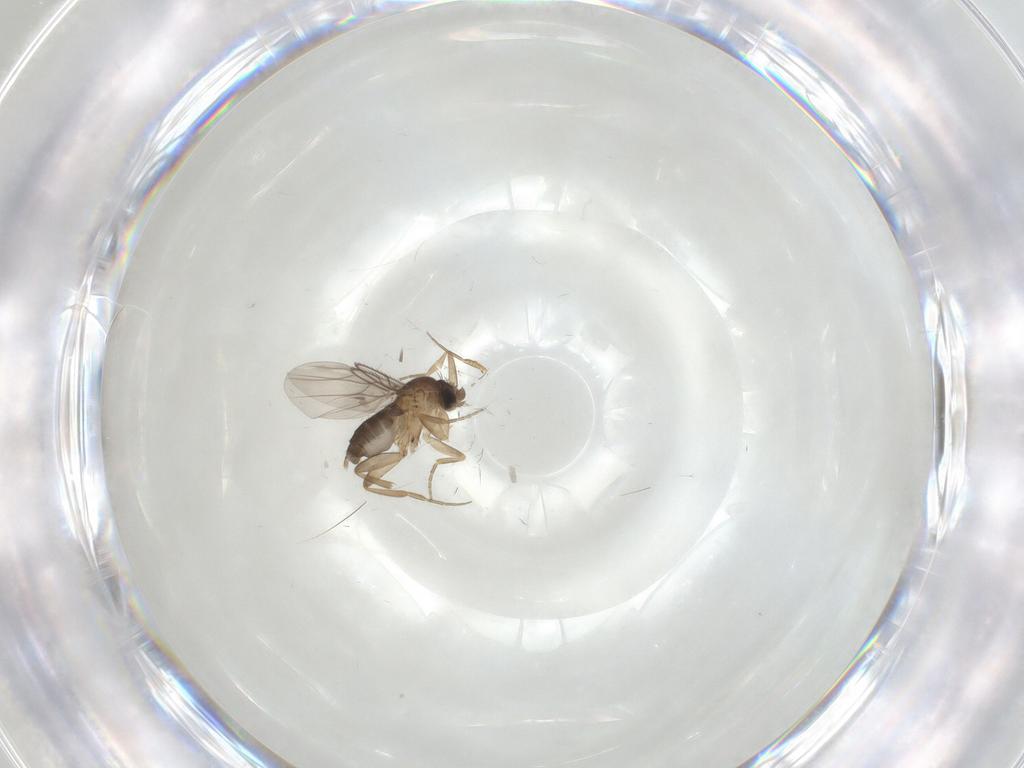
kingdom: Animalia
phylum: Arthropoda
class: Insecta
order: Diptera
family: Phoridae
